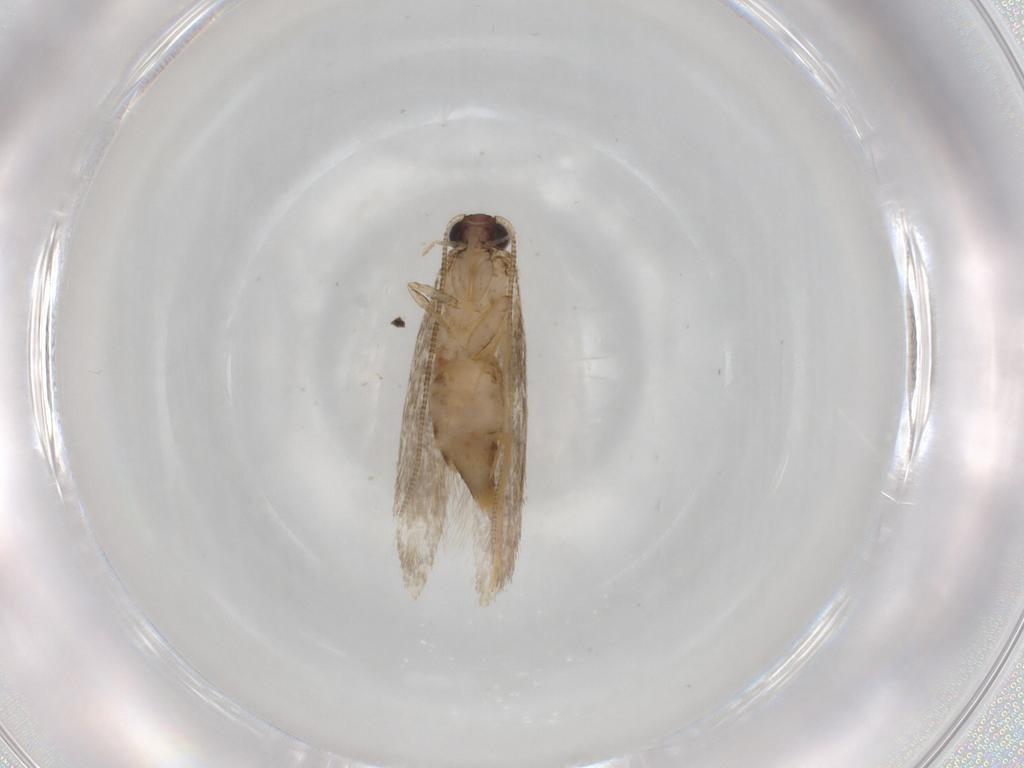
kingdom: Animalia
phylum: Arthropoda
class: Insecta
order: Lepidoptera
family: Tineidae
